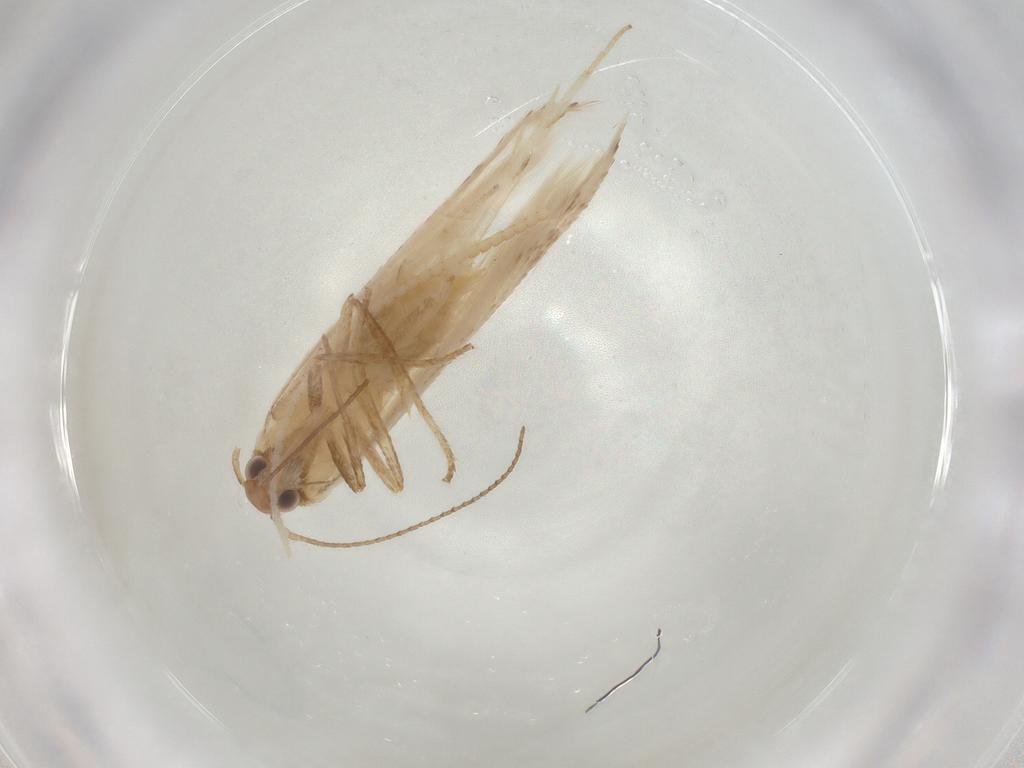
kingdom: Animalia
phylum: Arthropoda
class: Insecta
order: Lepidoptera
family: Gelechiidae
